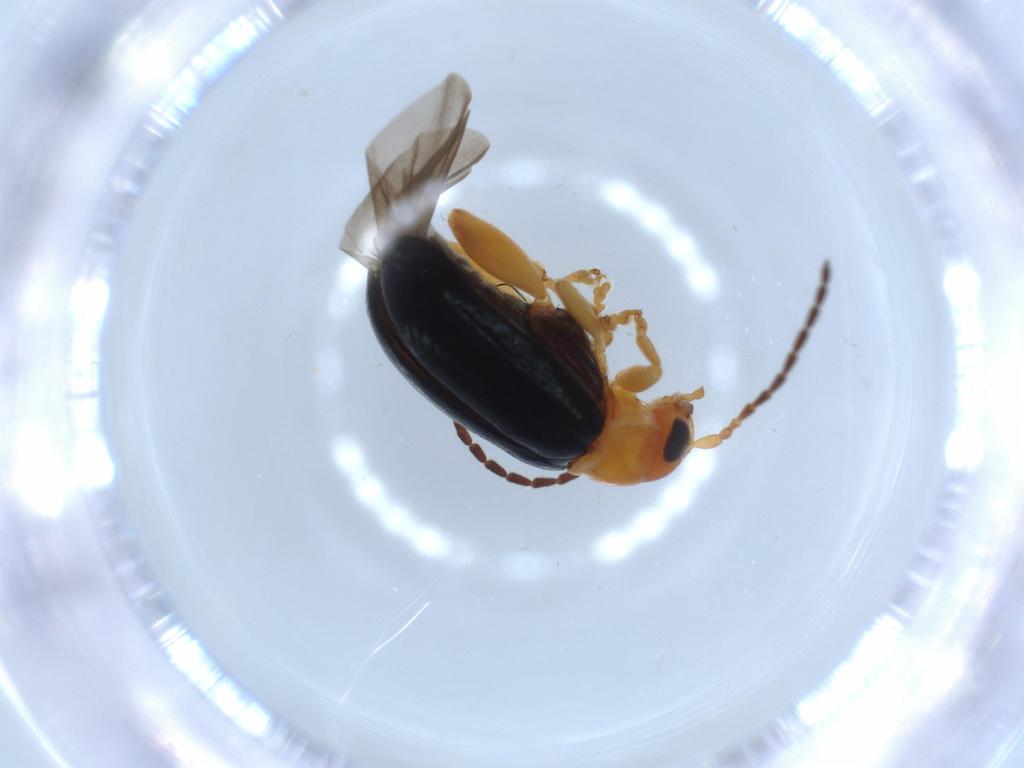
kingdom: Animalia
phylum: Arthropoda
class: Insecta
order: Coleoptera
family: Chrysomelidae
